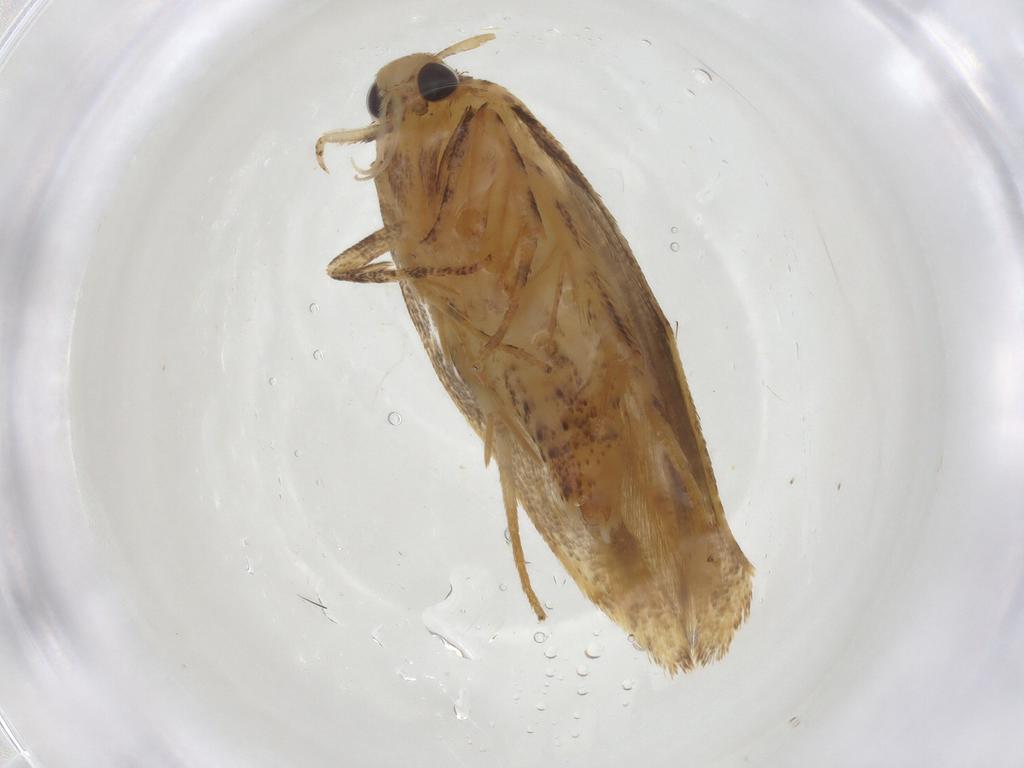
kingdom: Animalia
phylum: Arthropoda
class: Insecta
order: Lepidoptera
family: Gelechiidae
